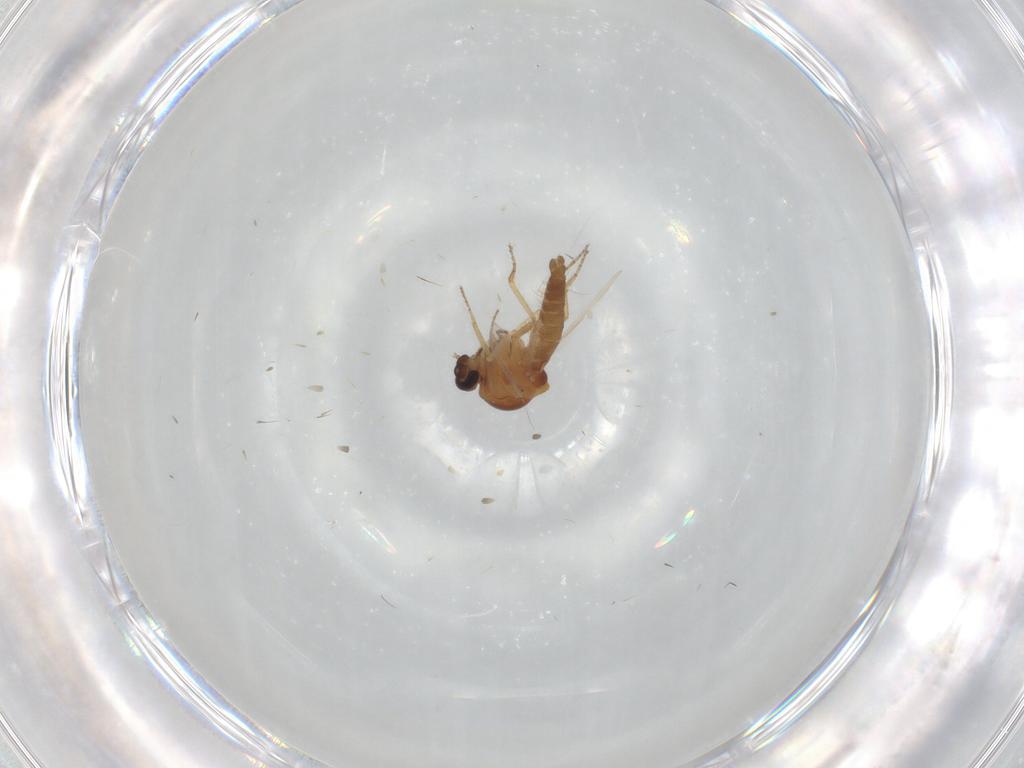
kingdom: Animalia
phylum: Arthropoda
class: Insecta
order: Diptera
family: Ceratopogonidae
